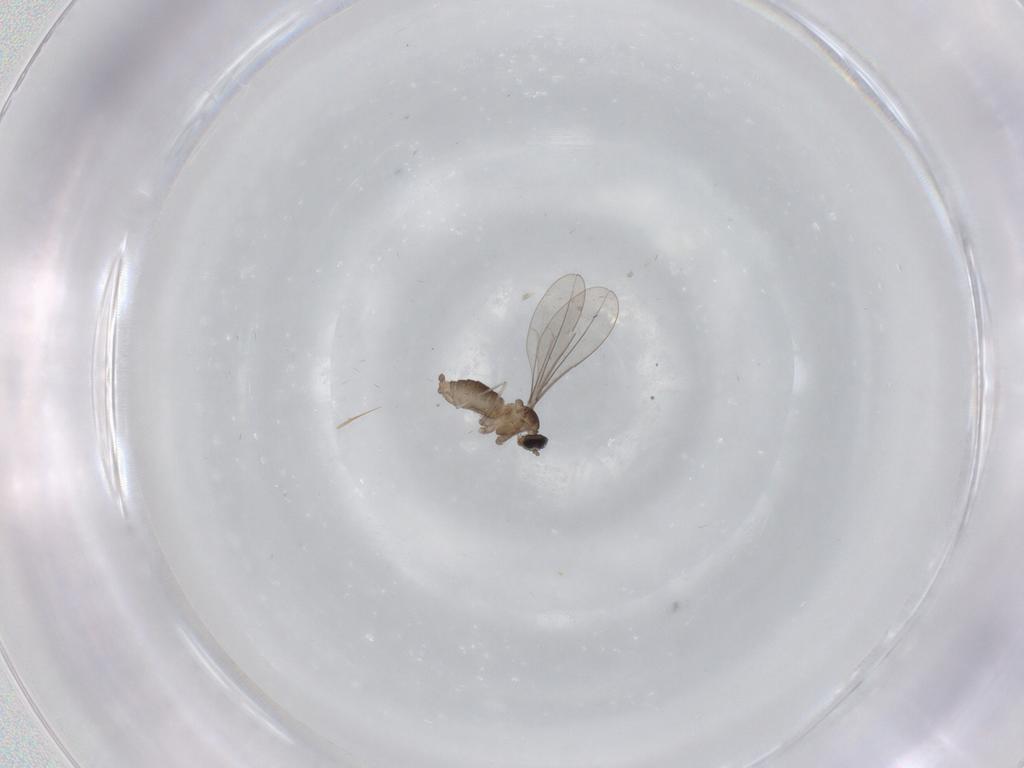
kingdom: Animalia
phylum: Arthropoda
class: Insecta
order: Diptera
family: Cecidomyiidae
